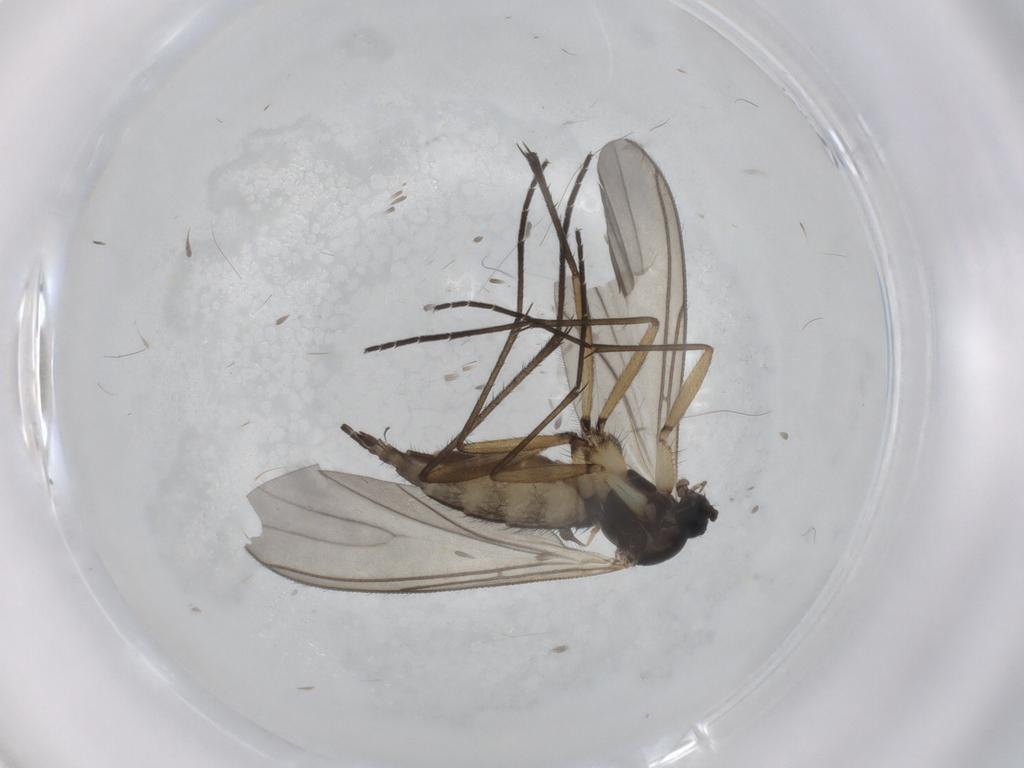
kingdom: Animalia
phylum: Arthropoda
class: Insecta
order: Diptera
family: Sciaridae
